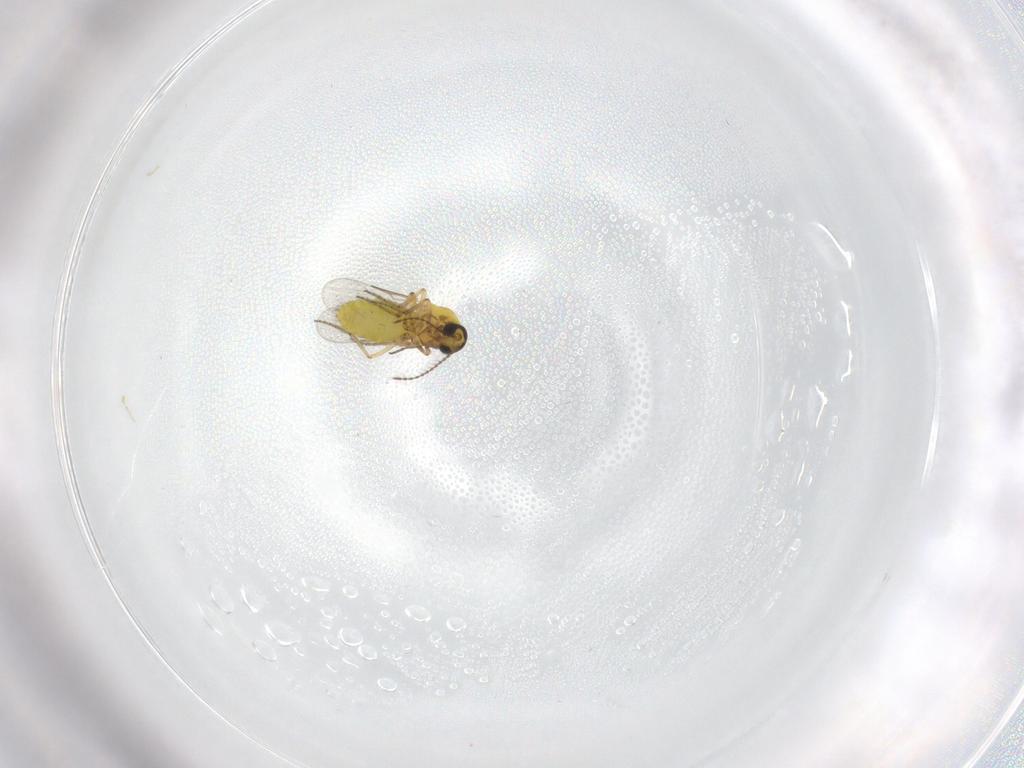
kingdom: Animalia
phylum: Arthropoda
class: Insecta
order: Diptera
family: Ceratopogonidae
